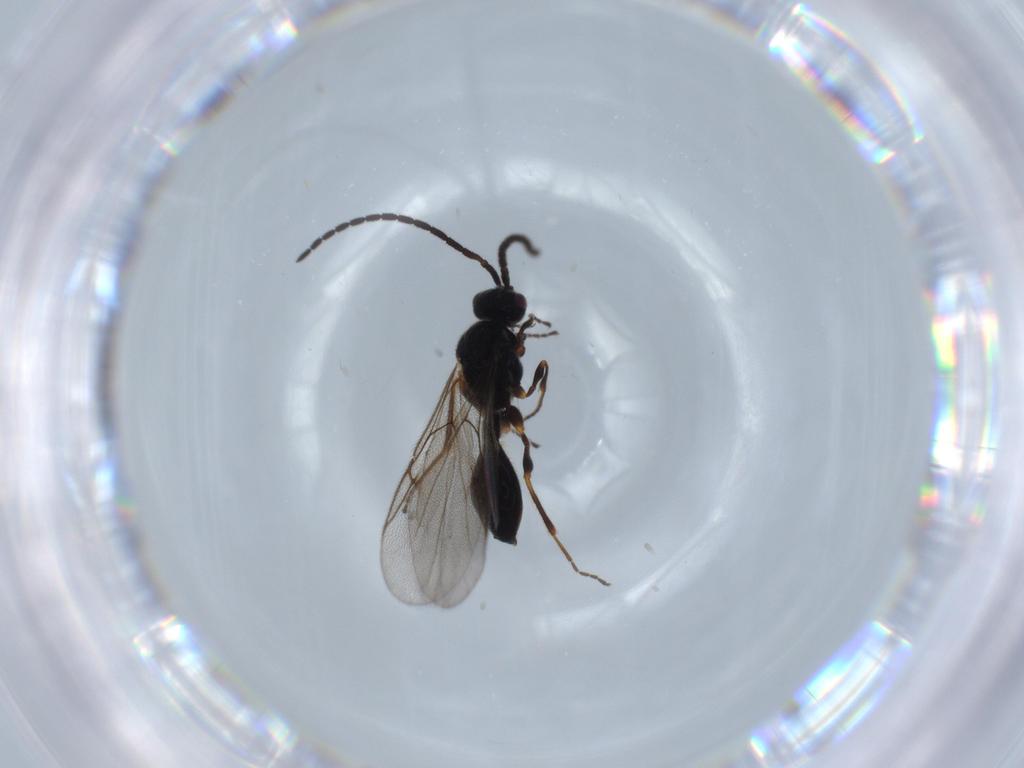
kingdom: Animalia
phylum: Arthropoda
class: Insecta
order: Hymenoptera
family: Diapriidae
